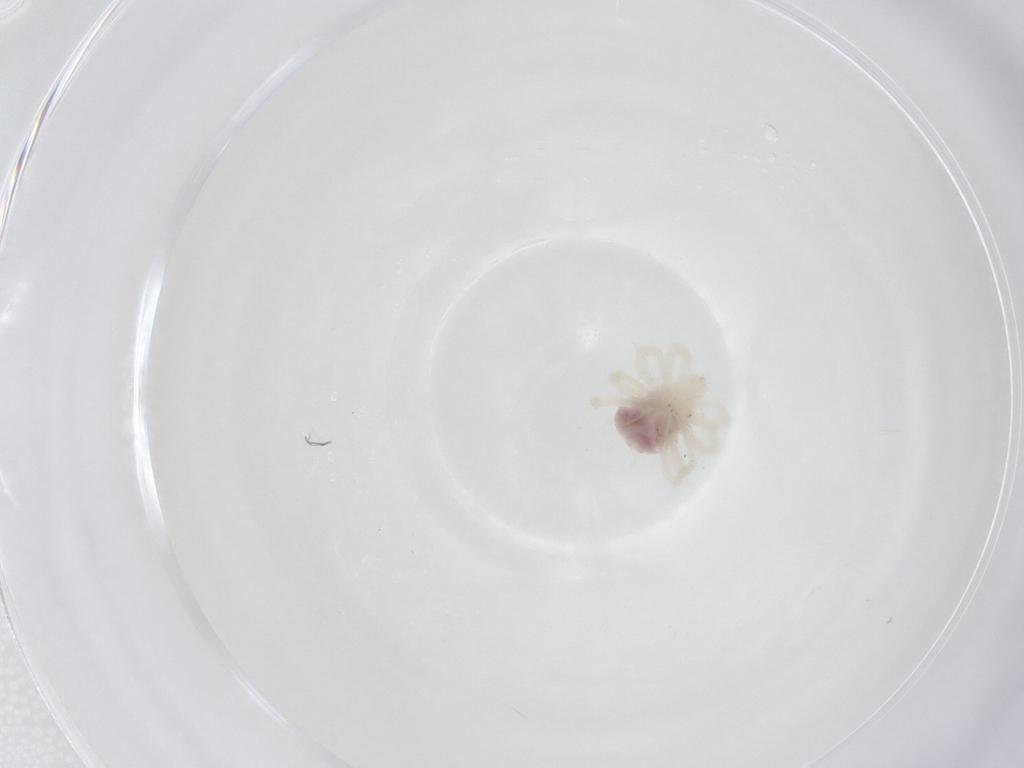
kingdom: Animalia
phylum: Arthropoda
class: Arachnida
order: Trombidiformes
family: Anystidae
